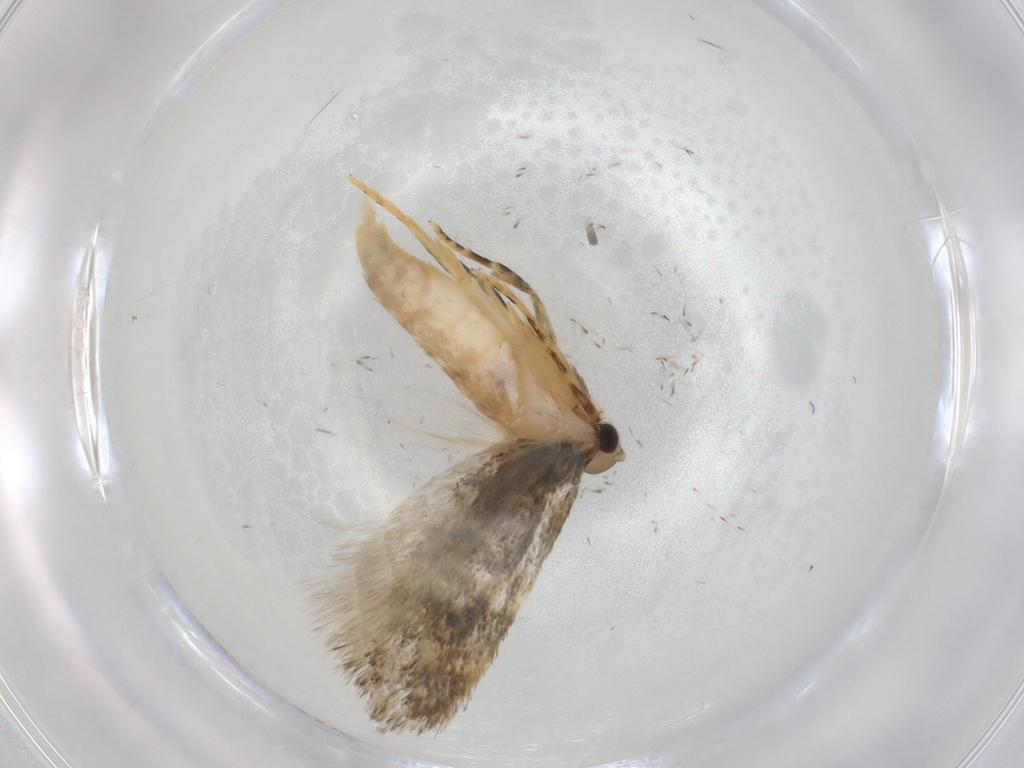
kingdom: Animalia
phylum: Arthropoda
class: Insecta
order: Lepidoptera
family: Autostichidae
